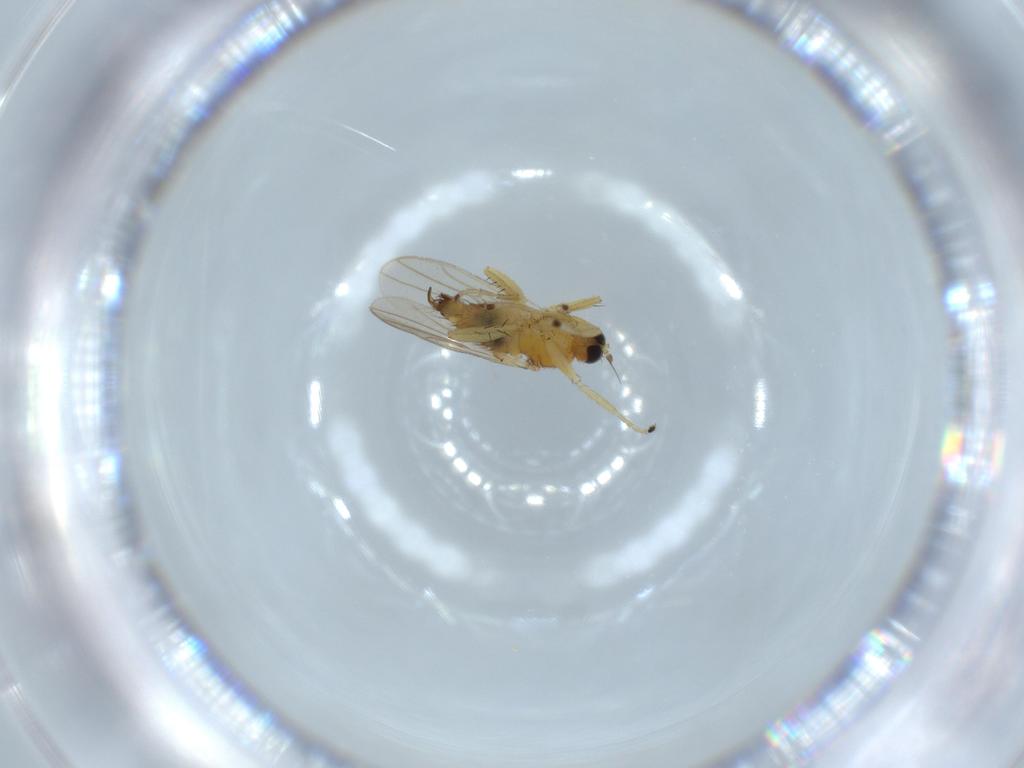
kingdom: Animalia
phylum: Arthropoda
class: Insecta
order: Diptera
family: Hybotidae
